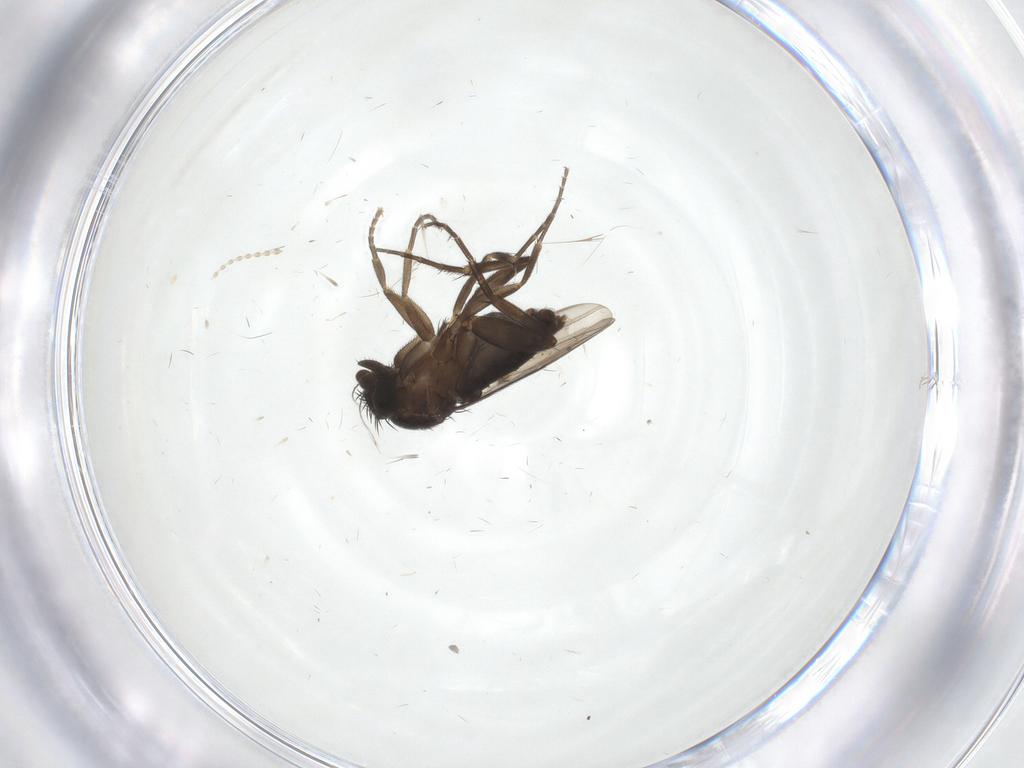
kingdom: Animalia
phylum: Arthropoda
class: Insecta
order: Diptera
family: Phoridae
